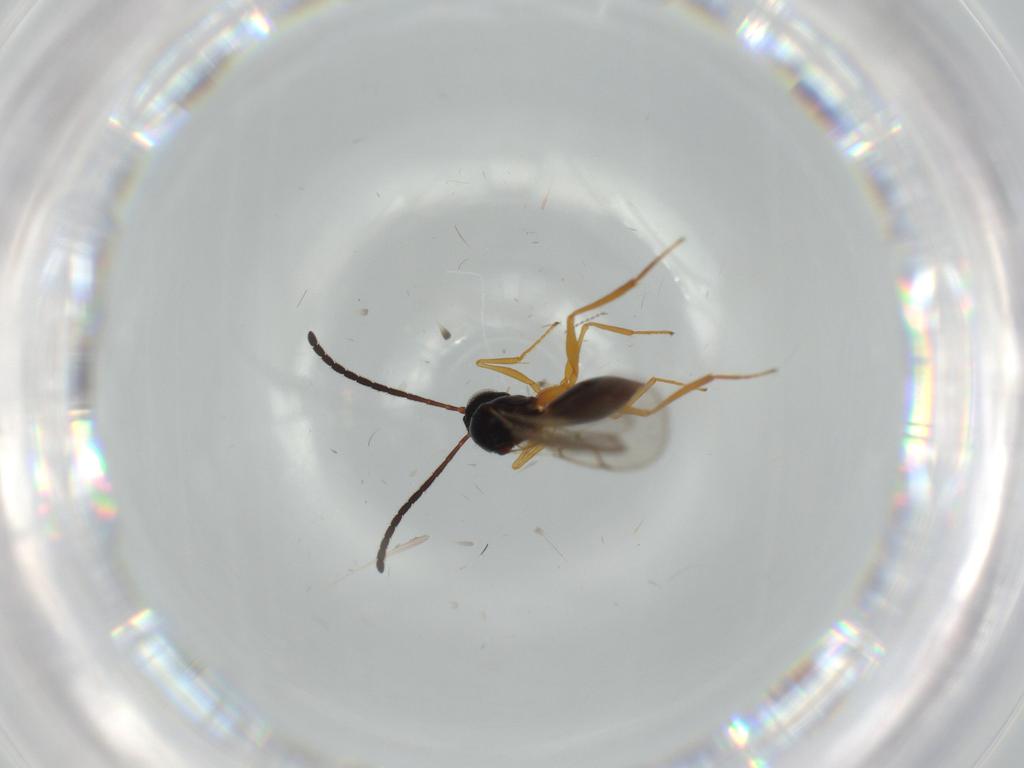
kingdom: Animalia
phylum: Arthropoda
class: Insecta
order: Hymenoptera
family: Figitidae
